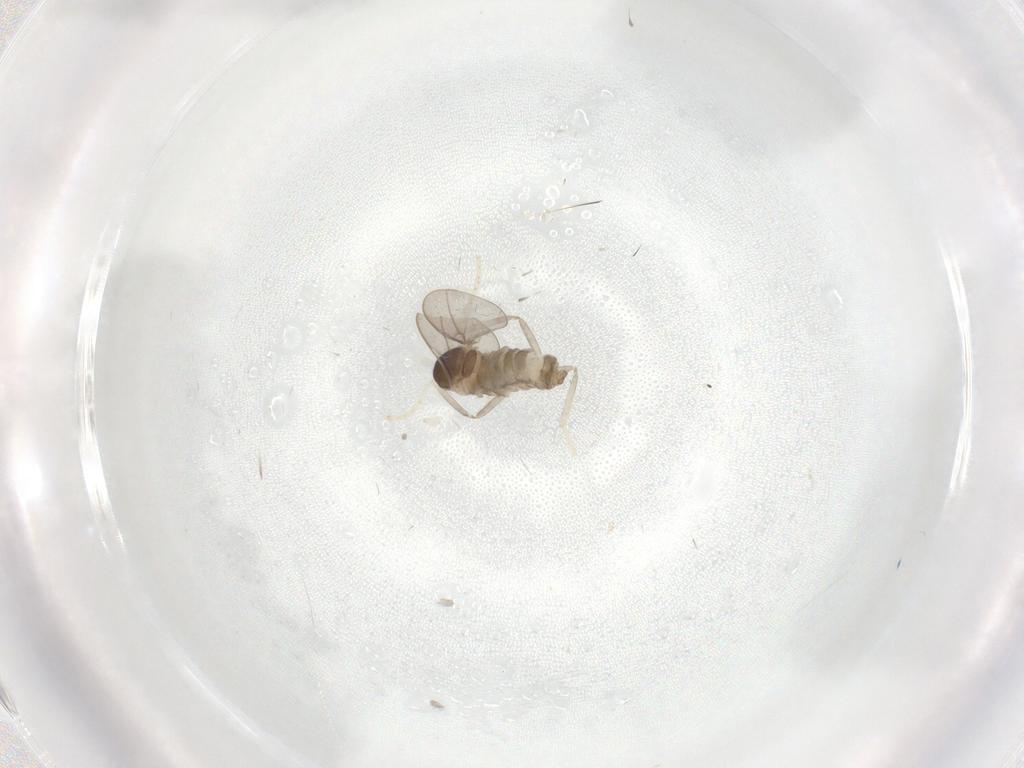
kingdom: Animalia
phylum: Arthropoda
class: Insecta
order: Diptera
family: Cecidomyiidae
